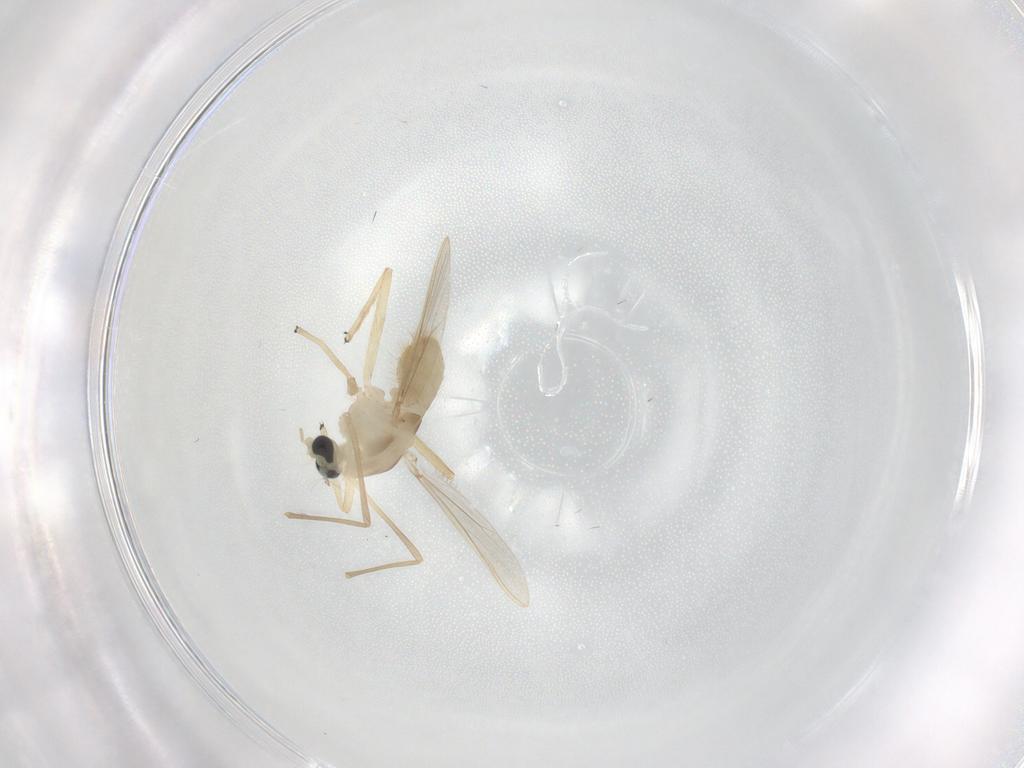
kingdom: Animalia
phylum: Arthropoda
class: Insecta
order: Diptera
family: Chironomidae
